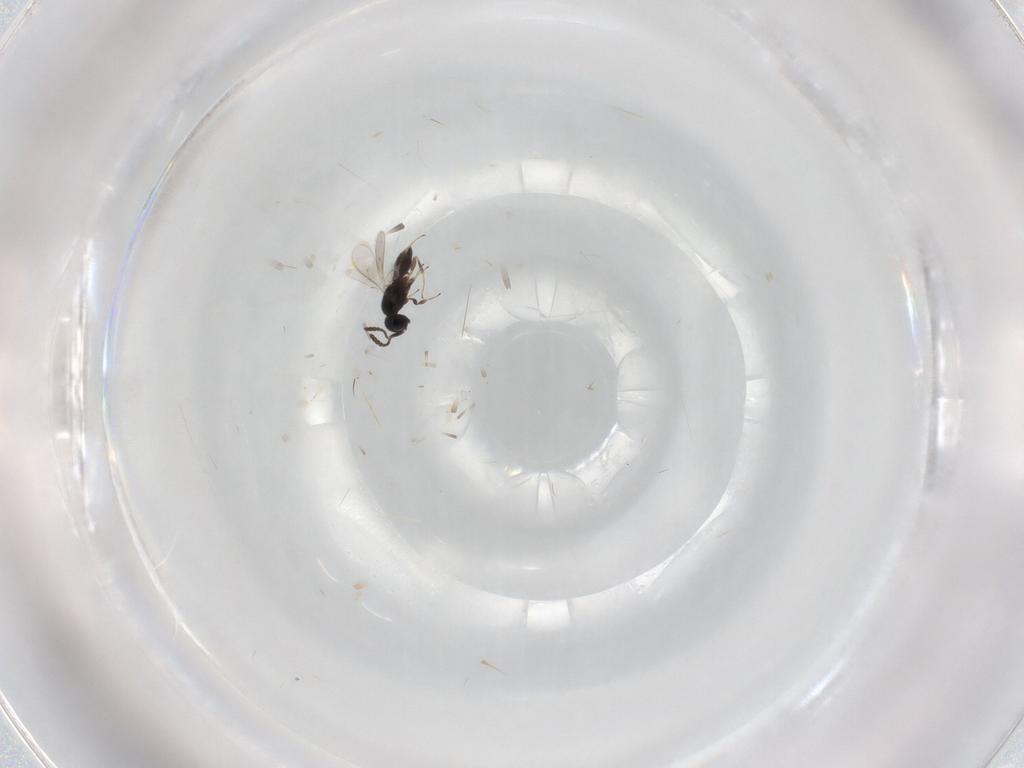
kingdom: Animalia
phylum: Arthropoda
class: Insecta
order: Hymenoptera
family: Scelionidae
